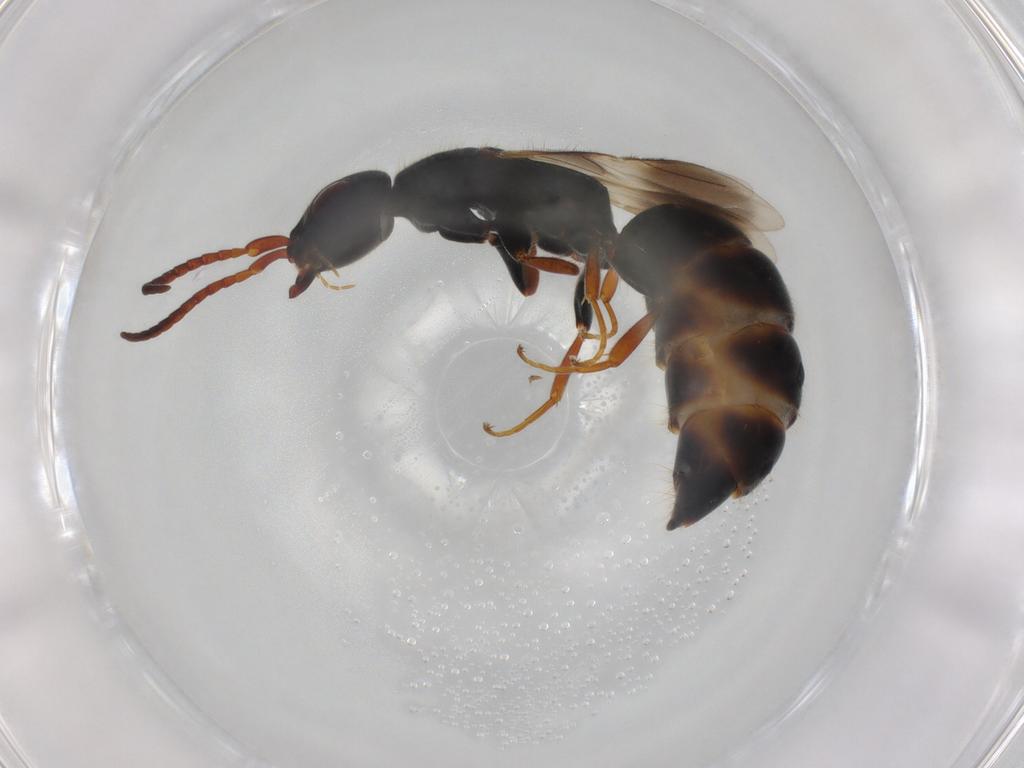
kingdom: Animalia
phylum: Arthropoda
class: Insecta
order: Hymenoptera
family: Bethylidae
